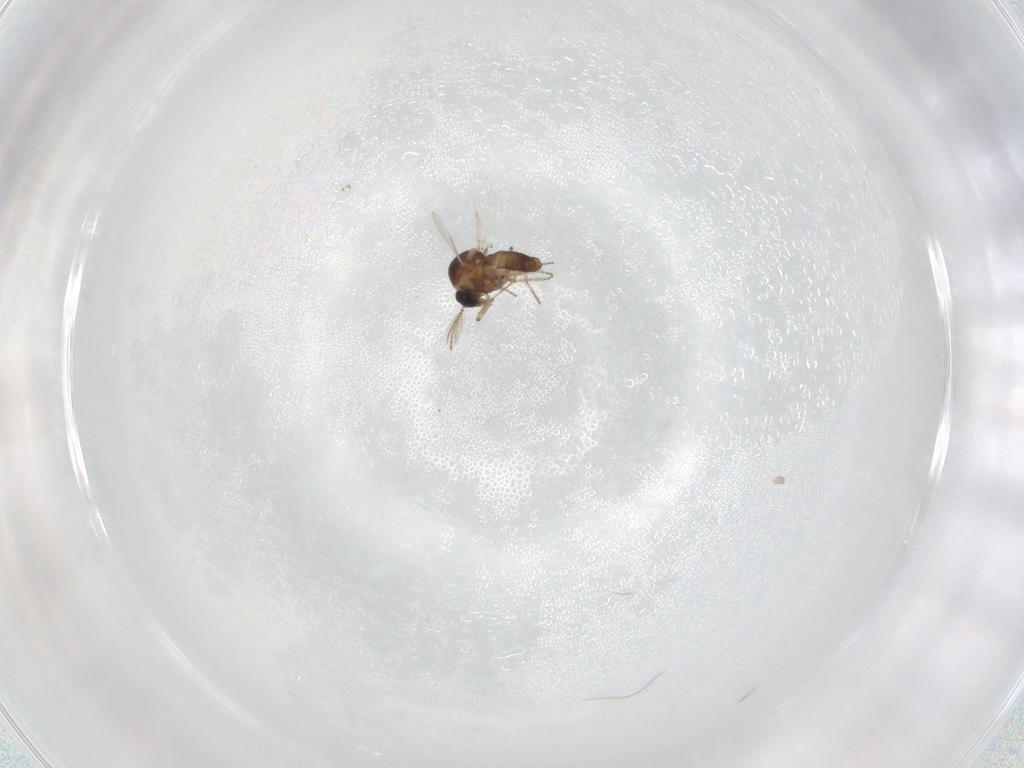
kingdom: Animalia
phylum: Arthropoda
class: Insecta
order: Diptera
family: Ceratopogonidae
